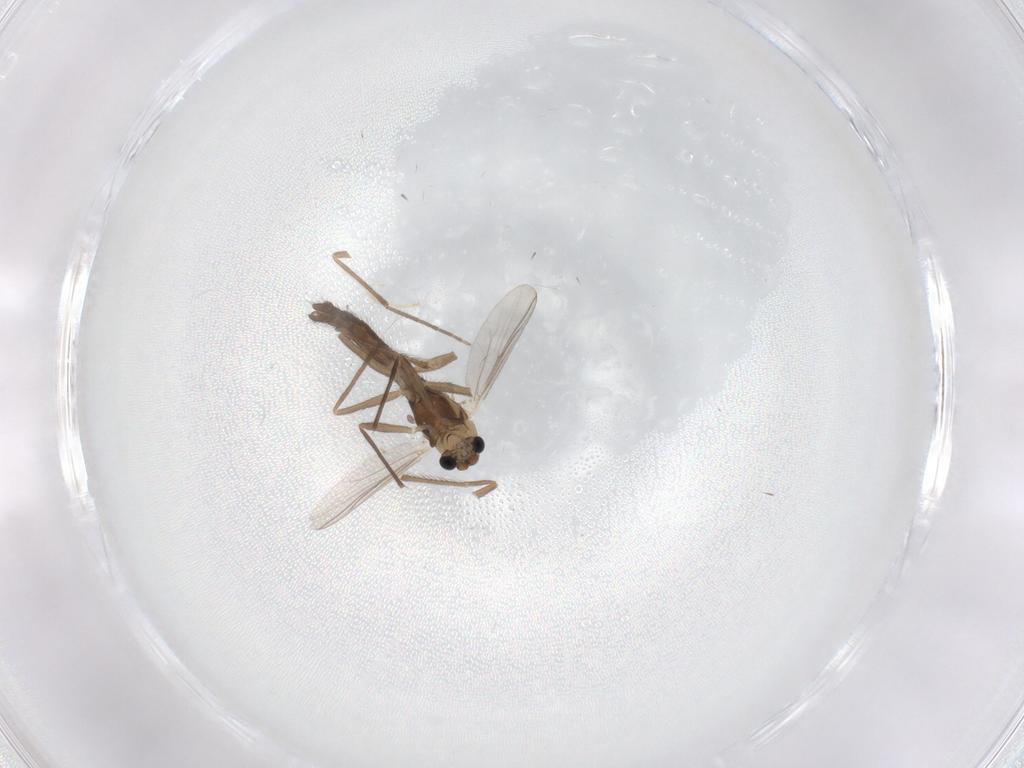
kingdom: Animalia
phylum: Arthropoda
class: Insecta
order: Diptera
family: Chironomidae
